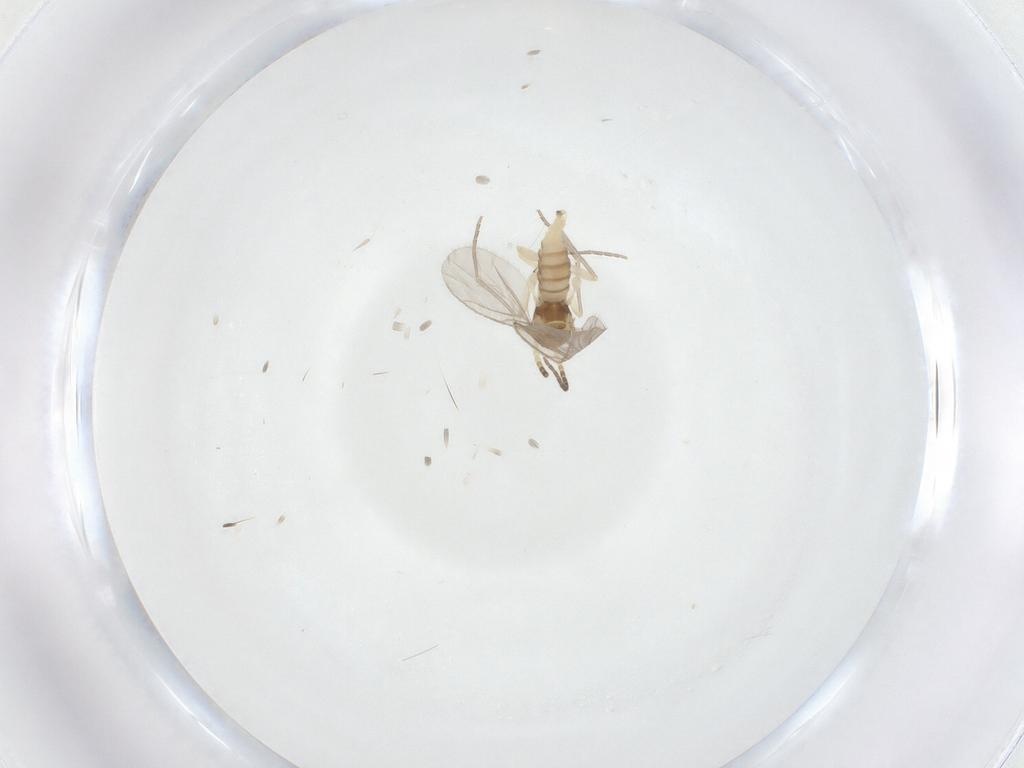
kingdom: Animalia
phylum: Arthropoda
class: Insecta
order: Diptera
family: Sciaridae
